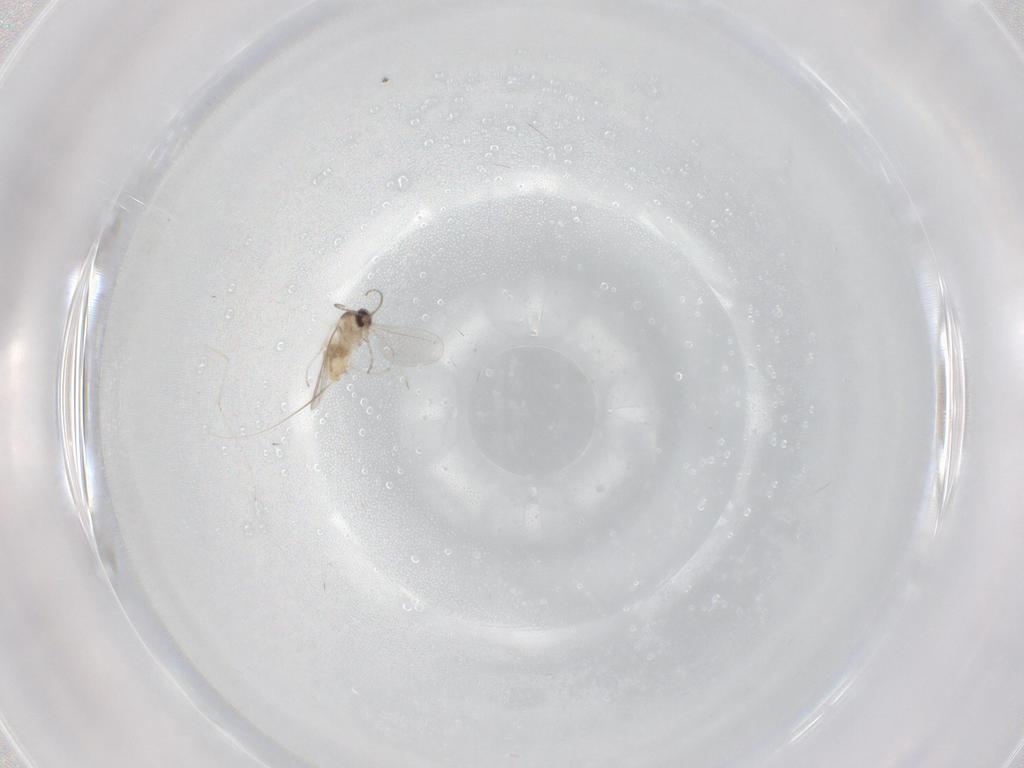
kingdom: Animalia
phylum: Arthropoda
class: Insecta
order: Diptera
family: Cecidomyiidae
